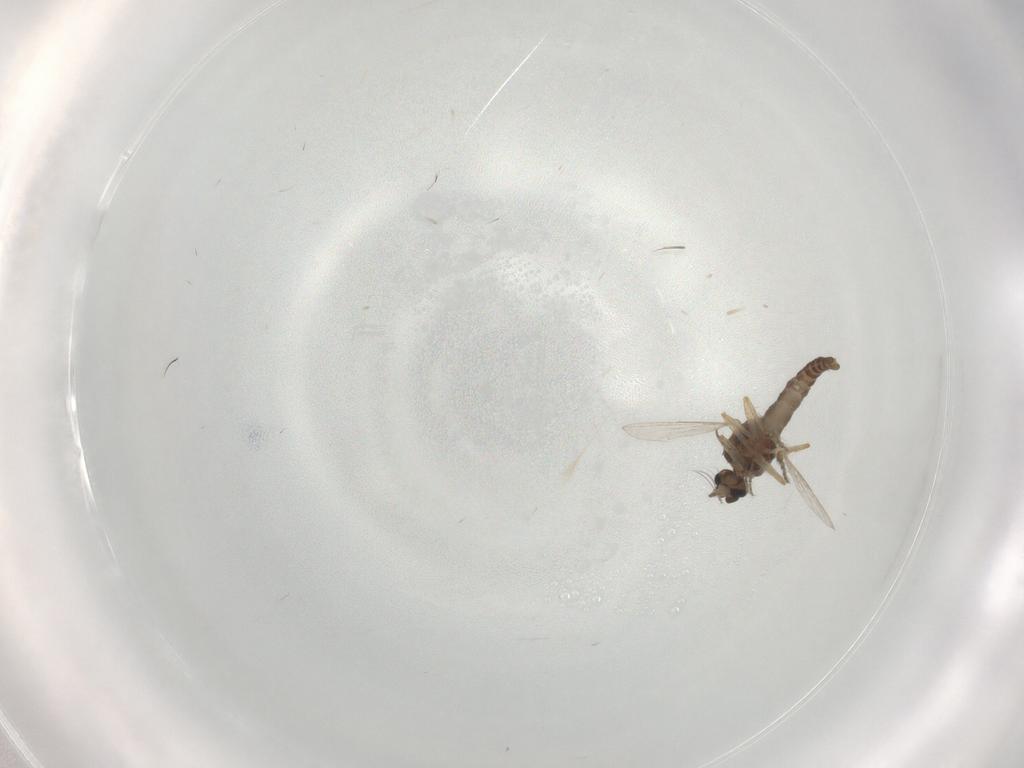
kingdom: Animalia
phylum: Arthropoda
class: Insecta
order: Diptera
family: Ceratopogonidae
